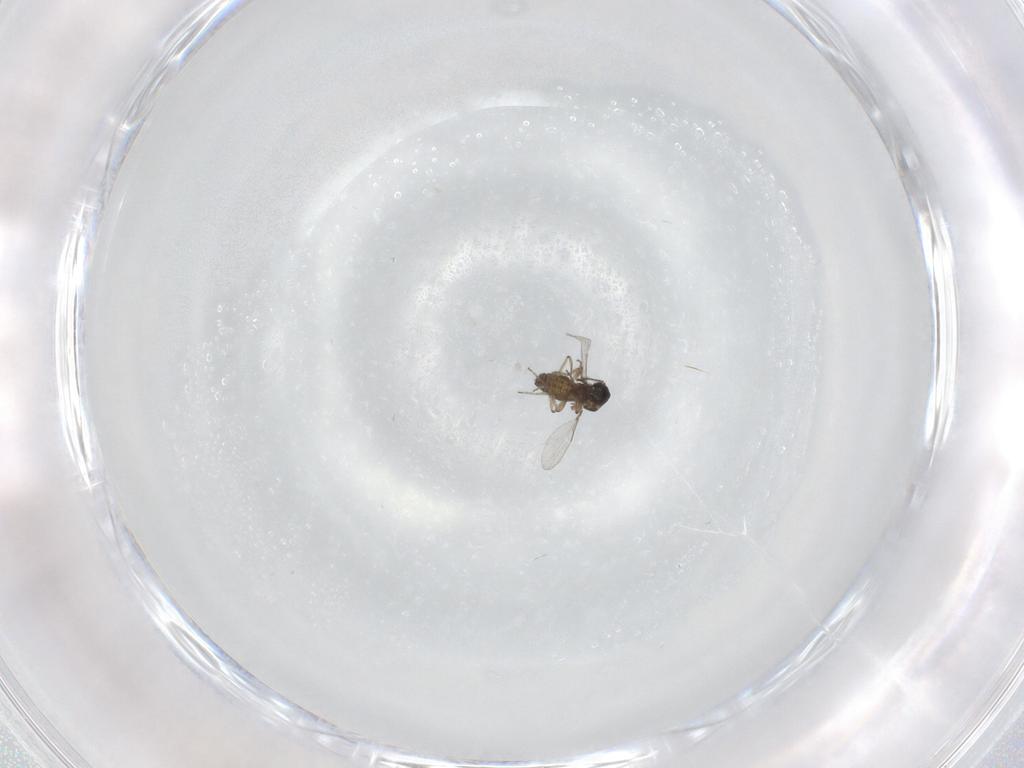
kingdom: Animalia
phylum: Arthropoda
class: Insecta
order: Diptera
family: Ceratopogonidae
